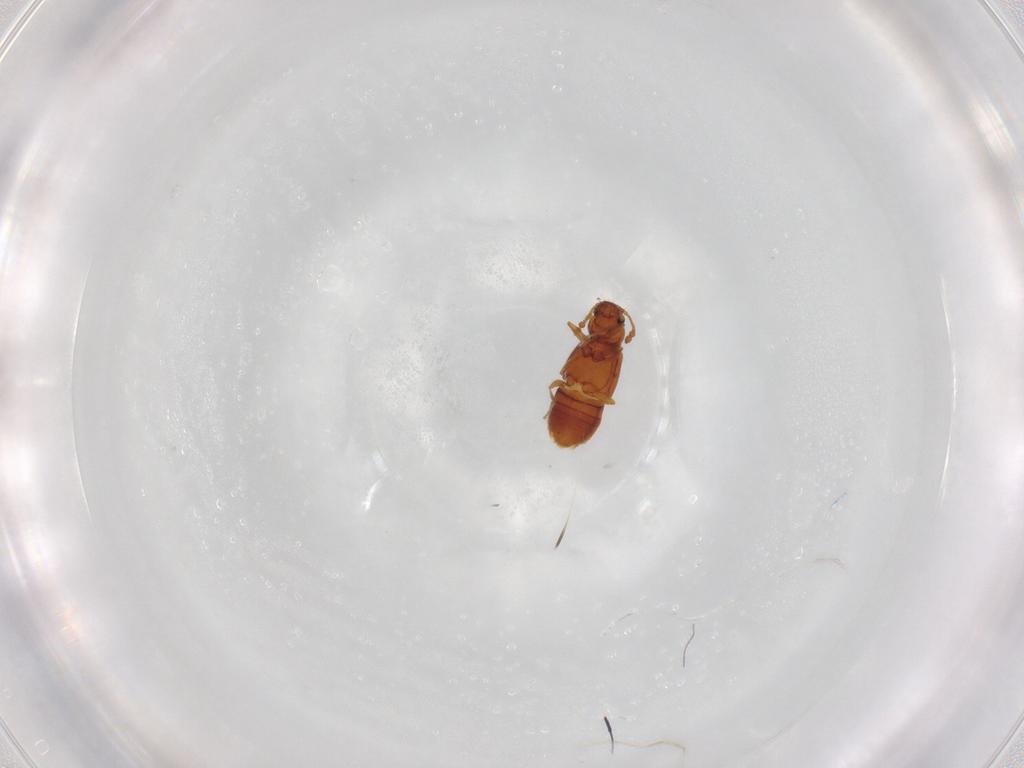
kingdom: Animalia
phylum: Arthropoda
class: Insecta
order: Coleoptera
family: Staphylinidae
